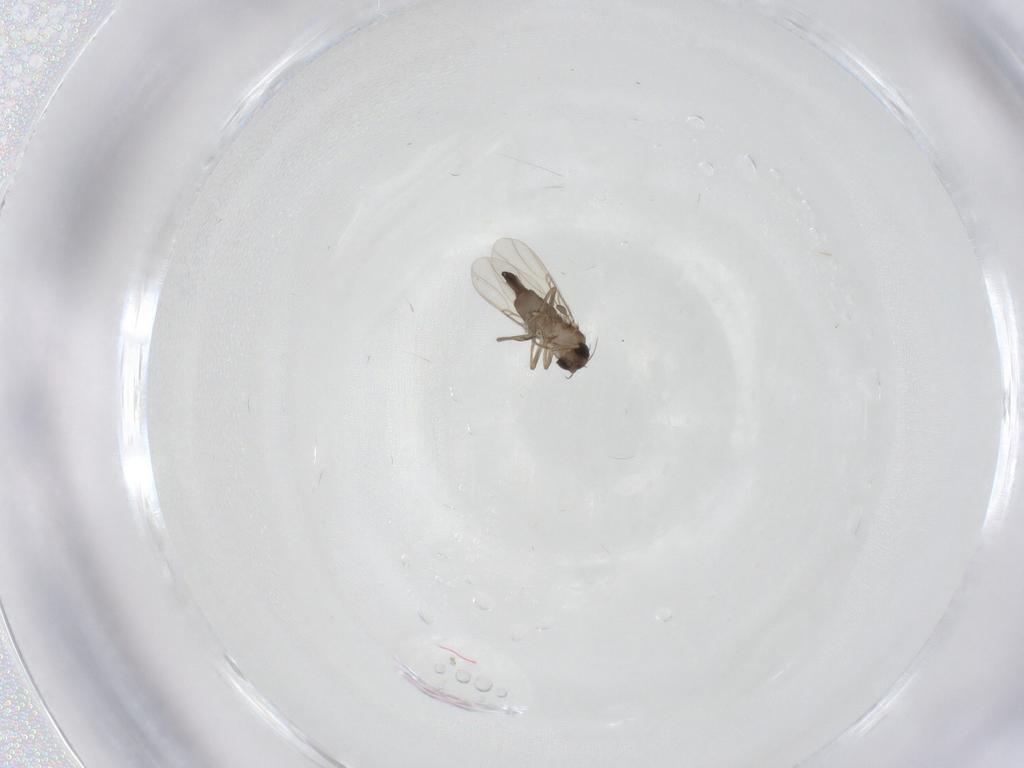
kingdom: Animalia
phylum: Arthropoda
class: Insecta
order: Diptera
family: Phoridae
